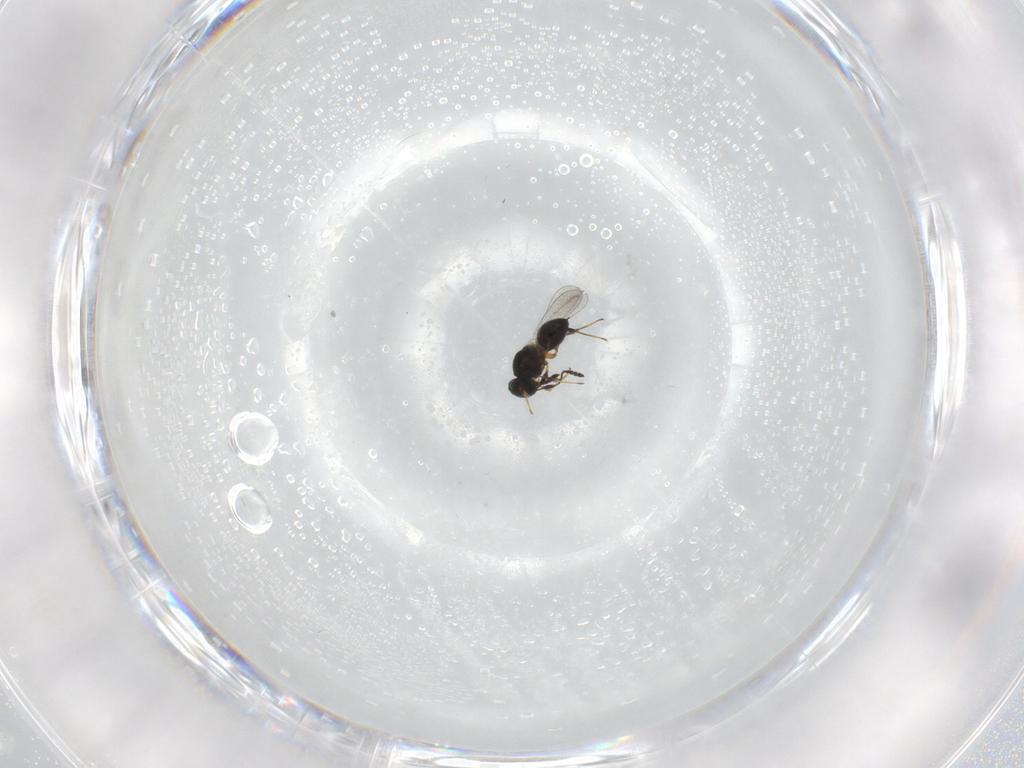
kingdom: Animalia
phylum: Arthropoda
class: Insecta
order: Hymenoptera
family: Platygastridae
